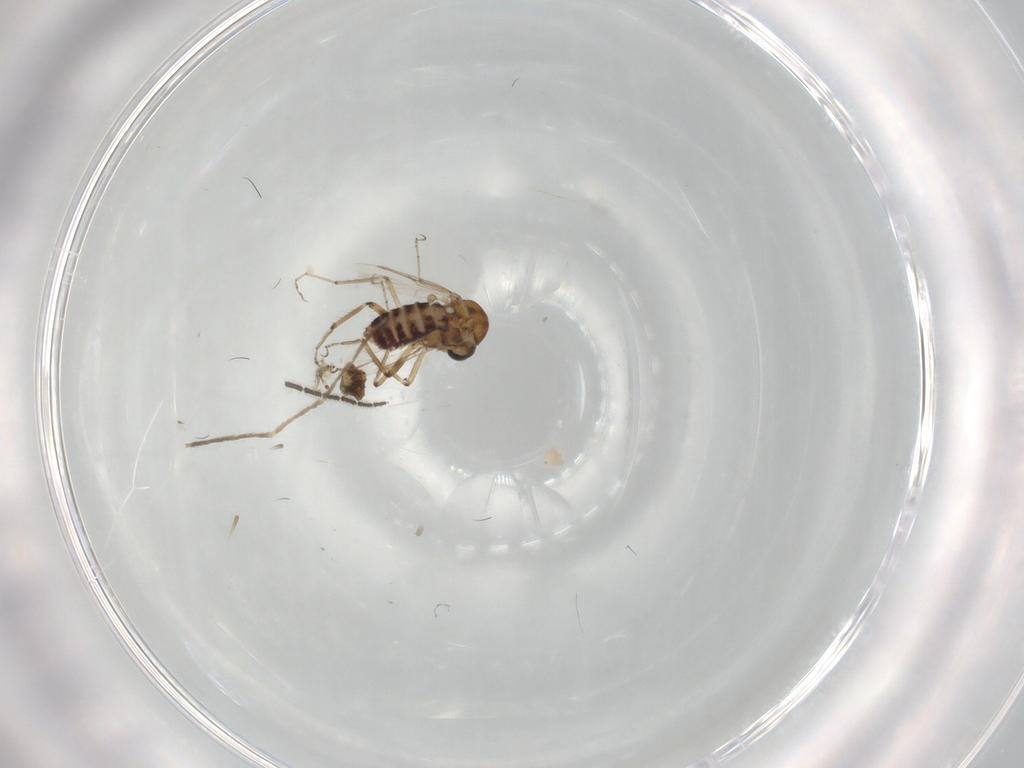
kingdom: Animalia
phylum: Arthropoda
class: Insecta
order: Diptera
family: Chironomidae
